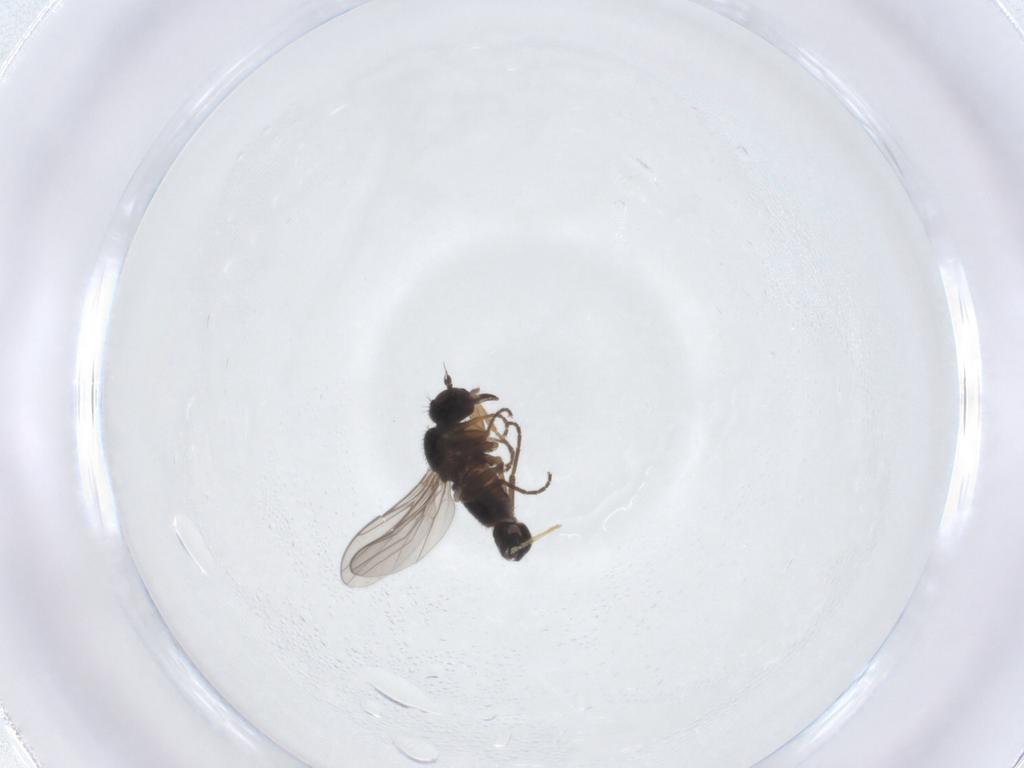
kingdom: Animalia
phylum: Arthropoda
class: Insecta
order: Diptera
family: Hybotidae
